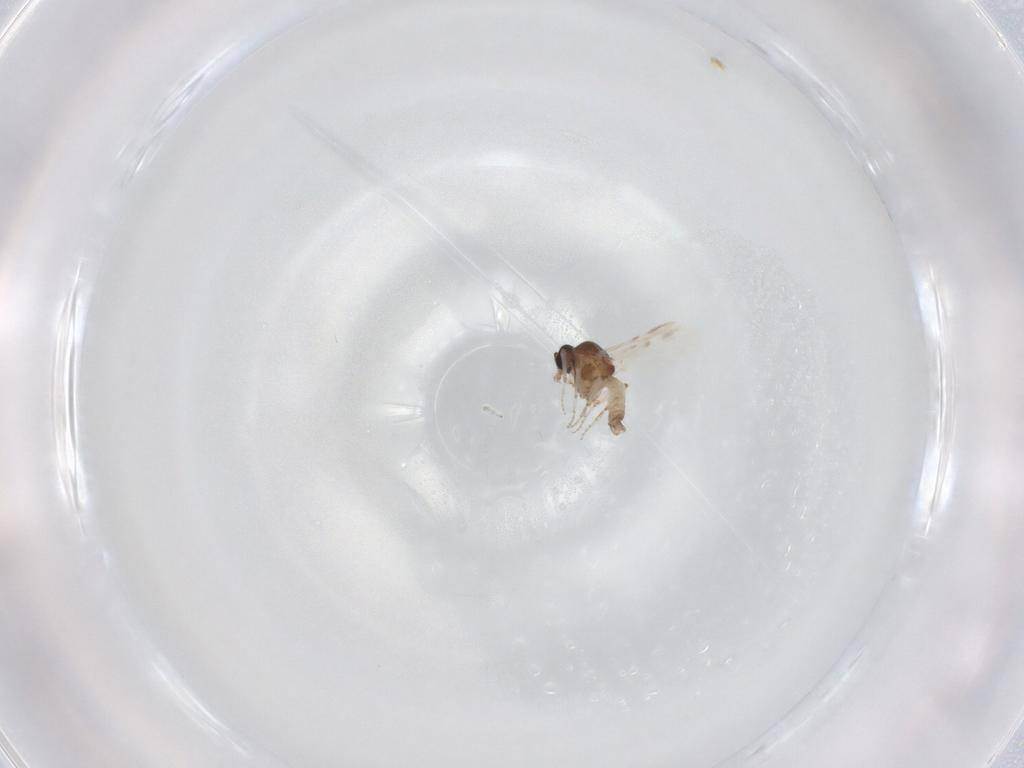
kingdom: Animalia
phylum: Arthropoda
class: Insecta
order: Diptera
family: Ceratopogonidae
